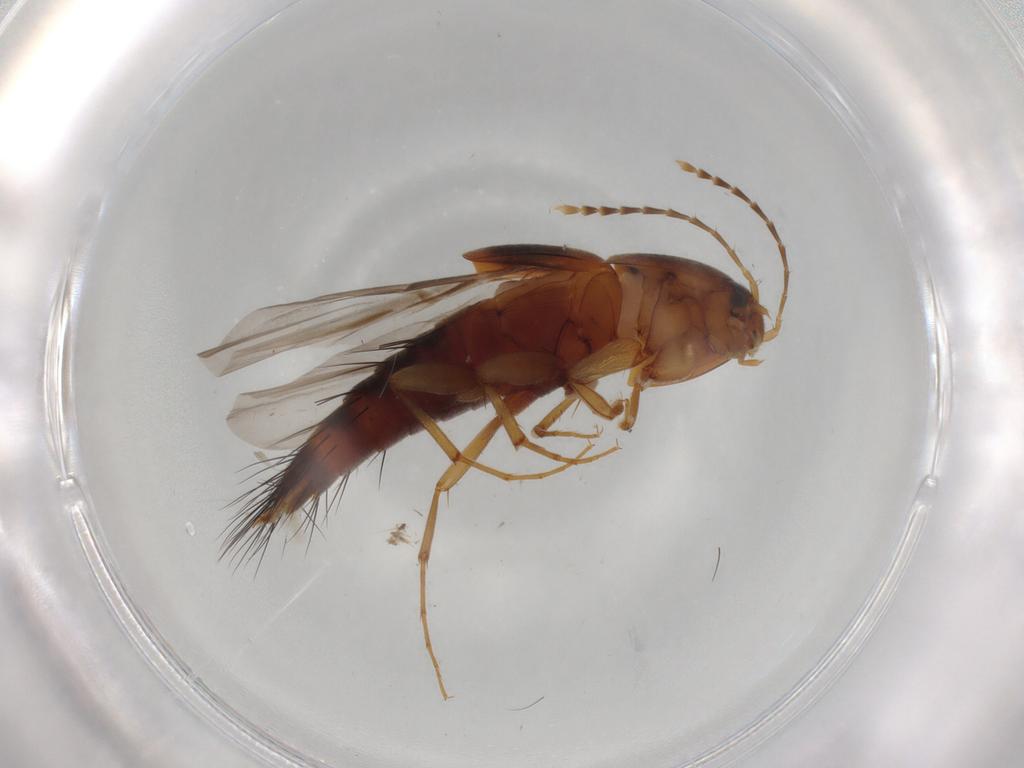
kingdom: Animalia
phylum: Arthropoda
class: Insecta
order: Coleoptera
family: Staphylinidae
